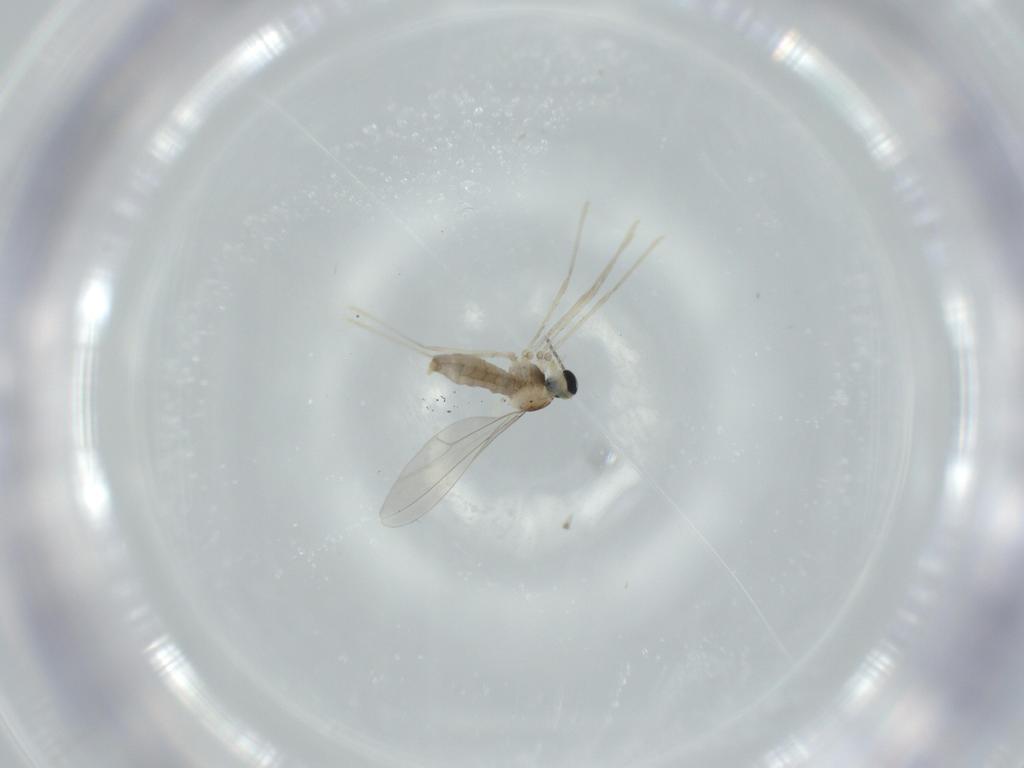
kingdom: Animalia
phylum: Arthropoda
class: Insecta
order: Diptera
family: Cecidomyiidae
